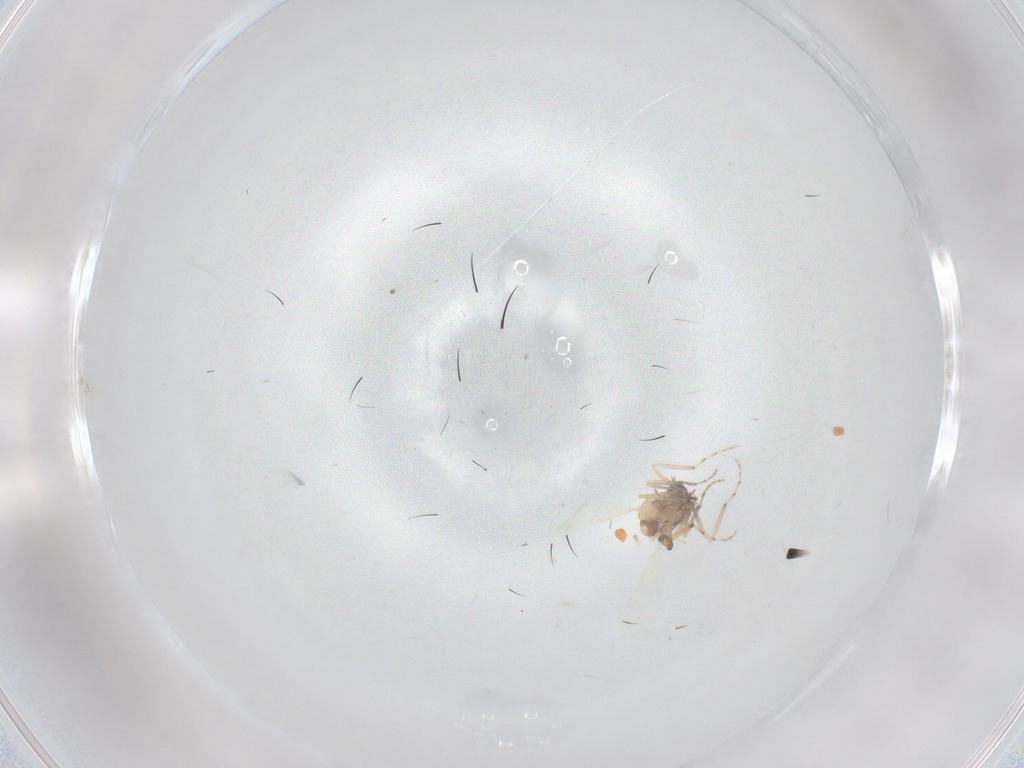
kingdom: Animalia
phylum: Arthropoda
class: Insecta
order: Diptera
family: Ceratopogonidae
